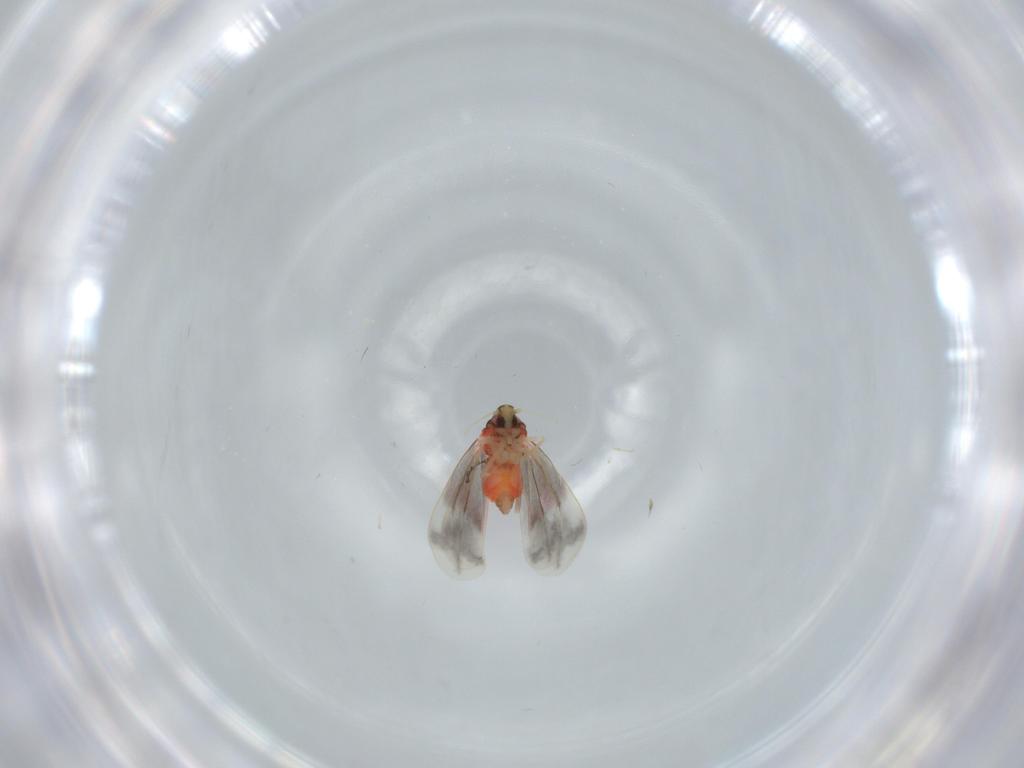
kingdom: Animalia
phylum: Arthropoda
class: Insecta
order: Hemiptera
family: Aleyrodidae
